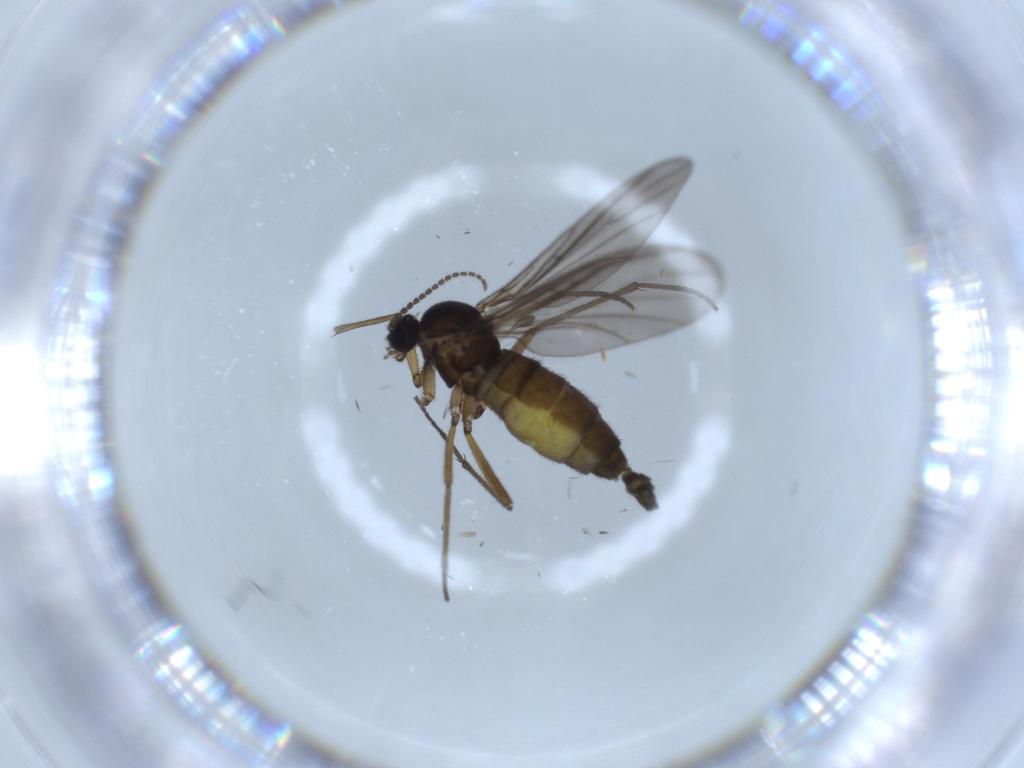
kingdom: Animalia
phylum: Arthropoda
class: Insecta
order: Diptera
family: Sciaridae
